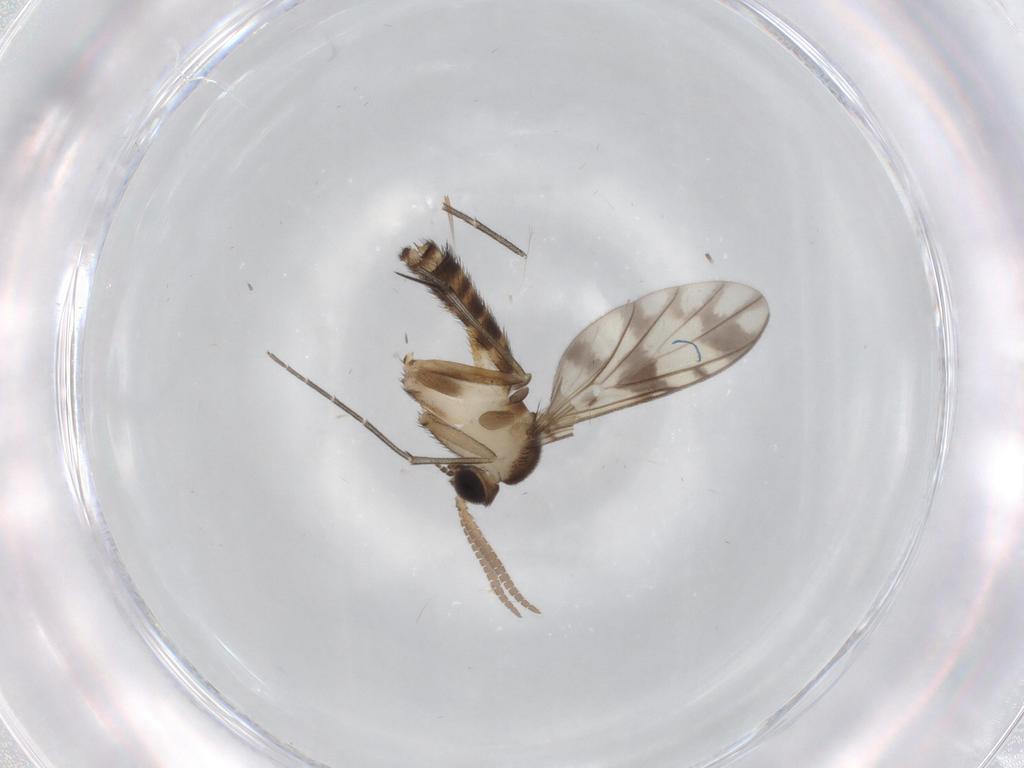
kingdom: Animalia
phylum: Arthropoda
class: Insecta
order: Diptera
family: Keroplatidae
